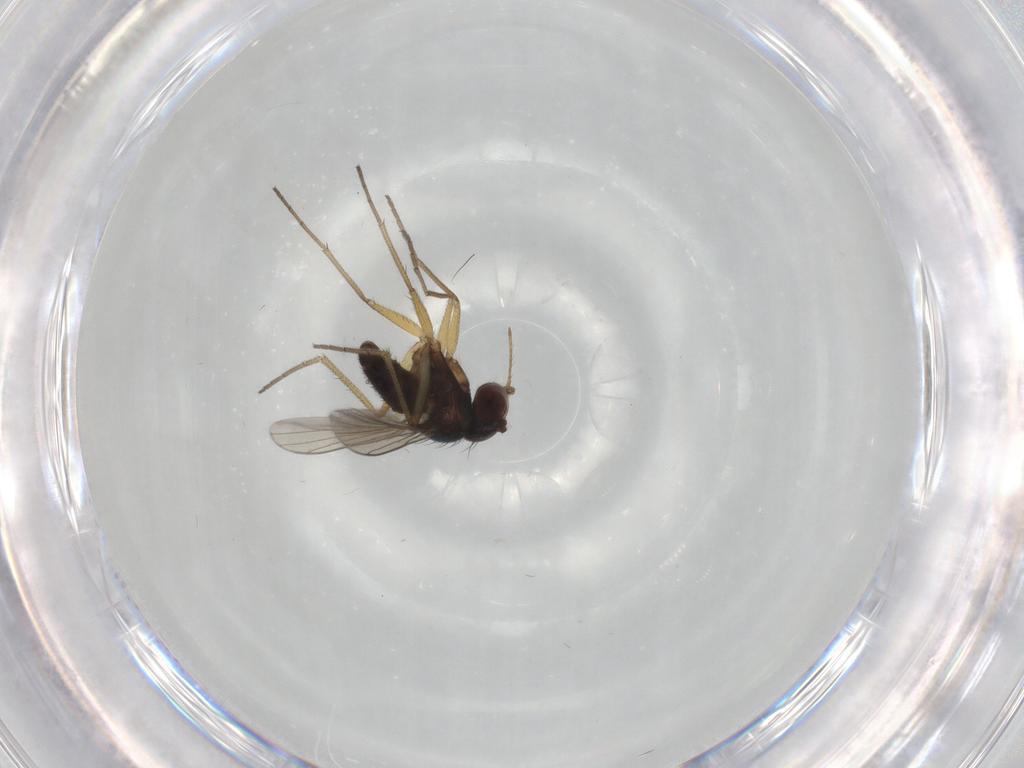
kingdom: Animalia
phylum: Arthropoda
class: Insecta
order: Diptera
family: Dolichopodidae
